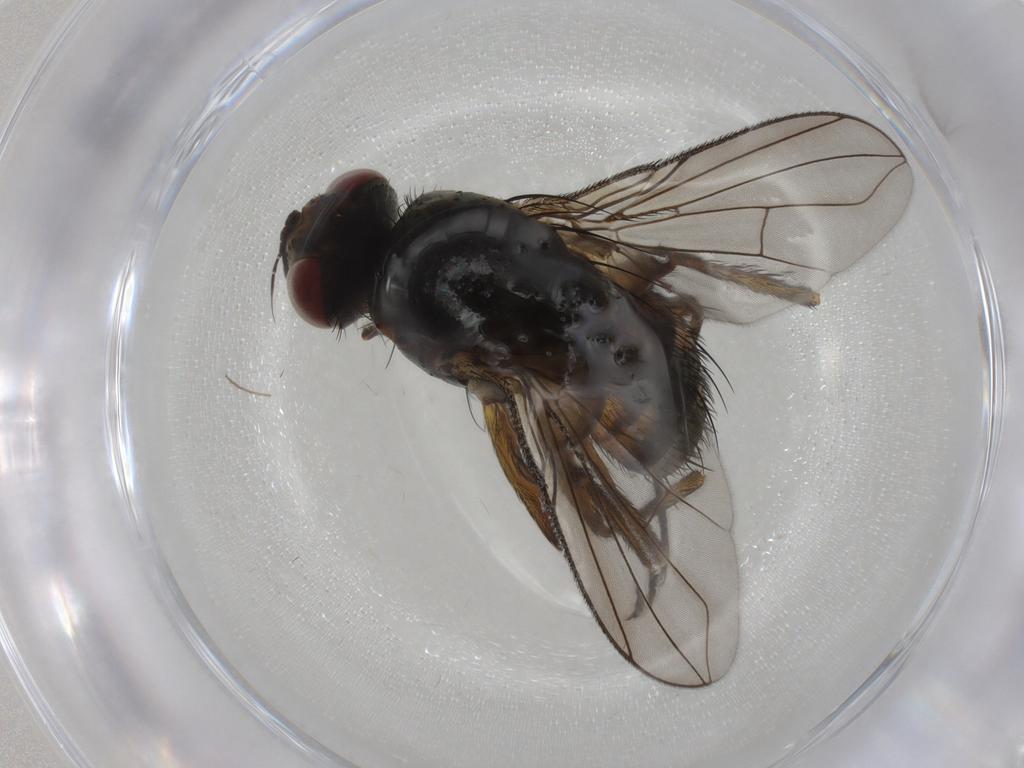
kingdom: Animalia
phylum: Arthropoda
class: Insecta
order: Diptera
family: Tachinidae
